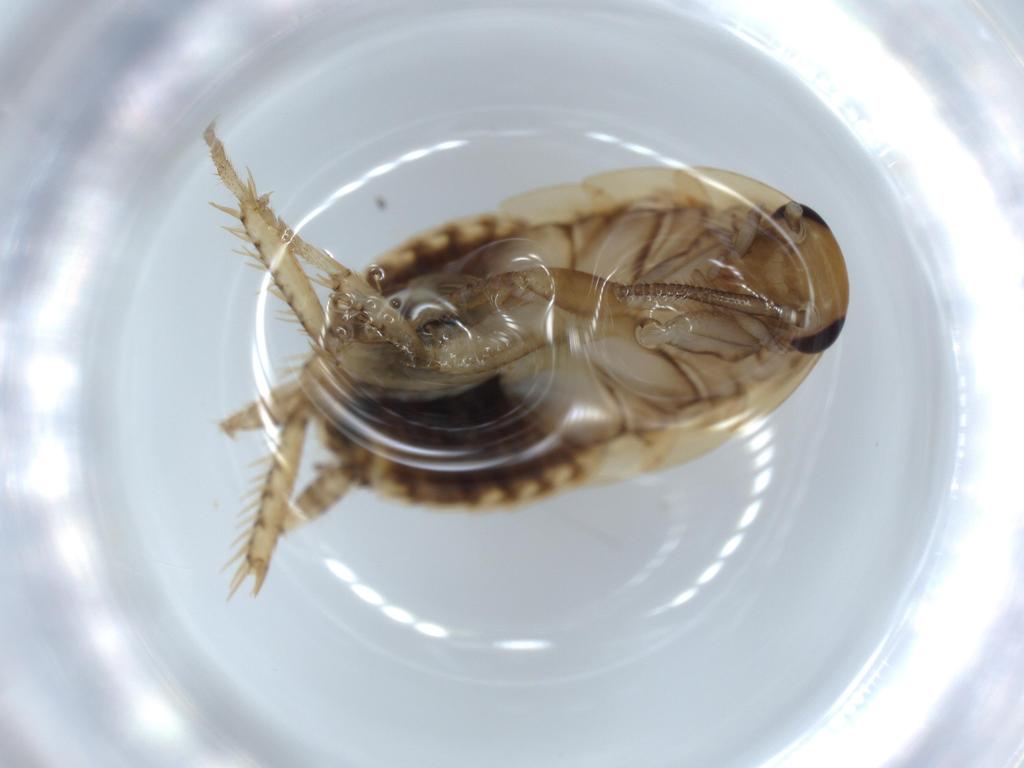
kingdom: Animalia
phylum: Arthropoda
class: Insecta
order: Blattodea
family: Ectobiidae
